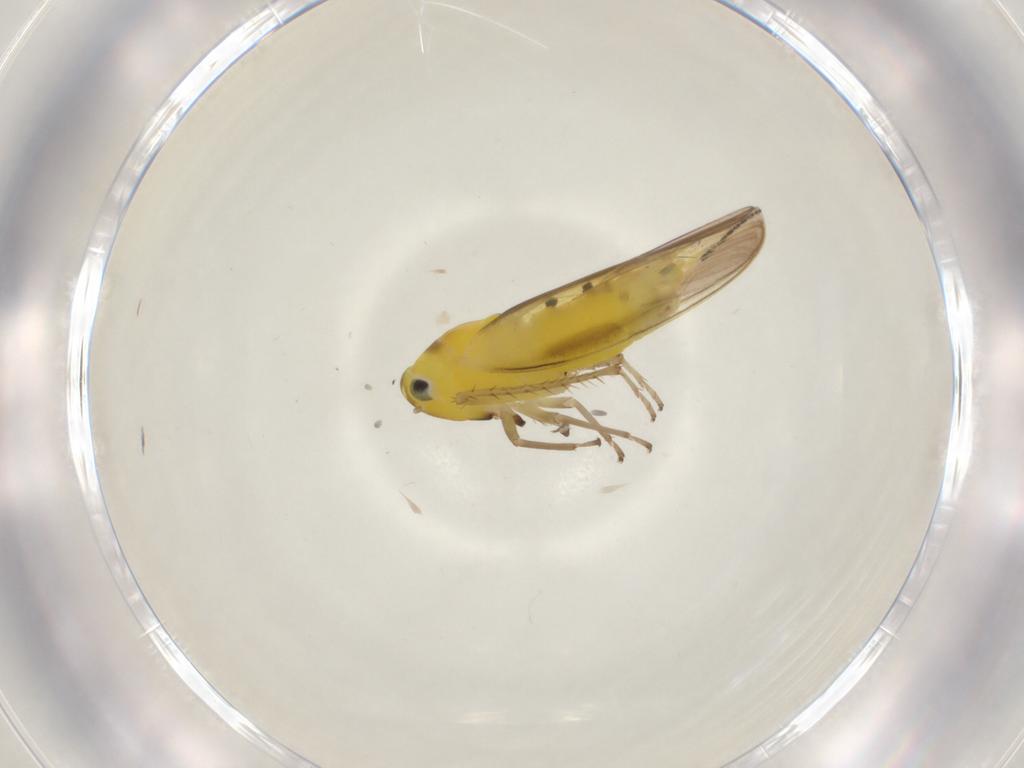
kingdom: Animalia
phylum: Arthropoda
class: Insecta
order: Hemiptera
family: Cicadellidae
